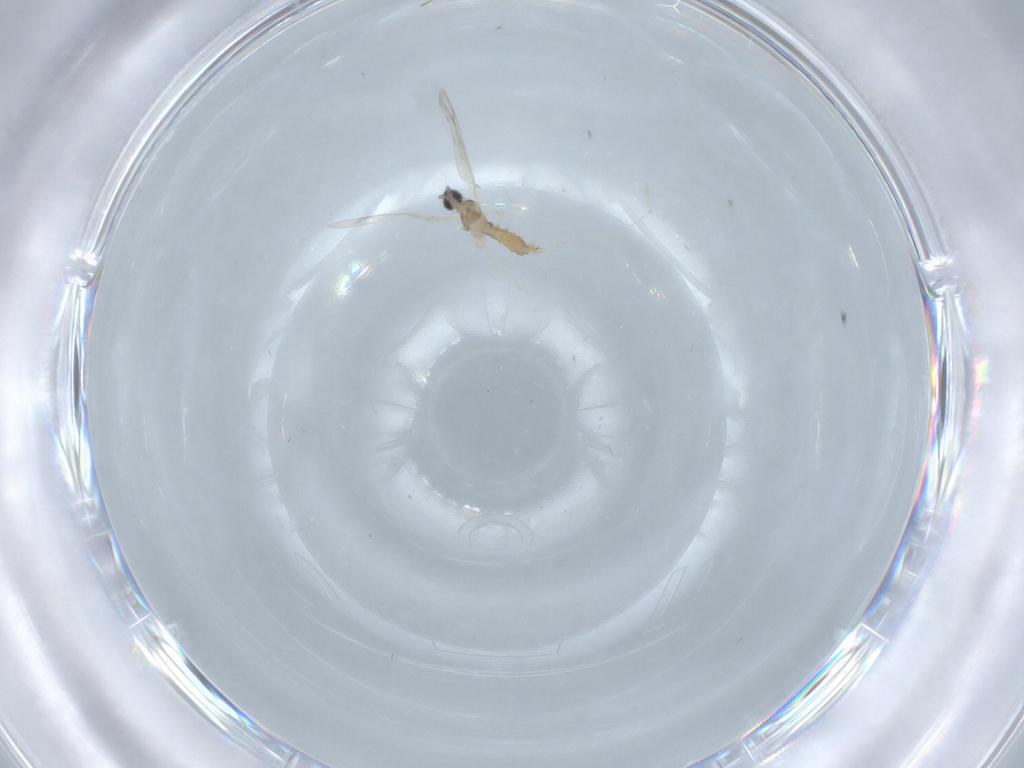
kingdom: Animalia
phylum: Arthropoda
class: Insecta
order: Diptera
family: Cecidomyiidae
